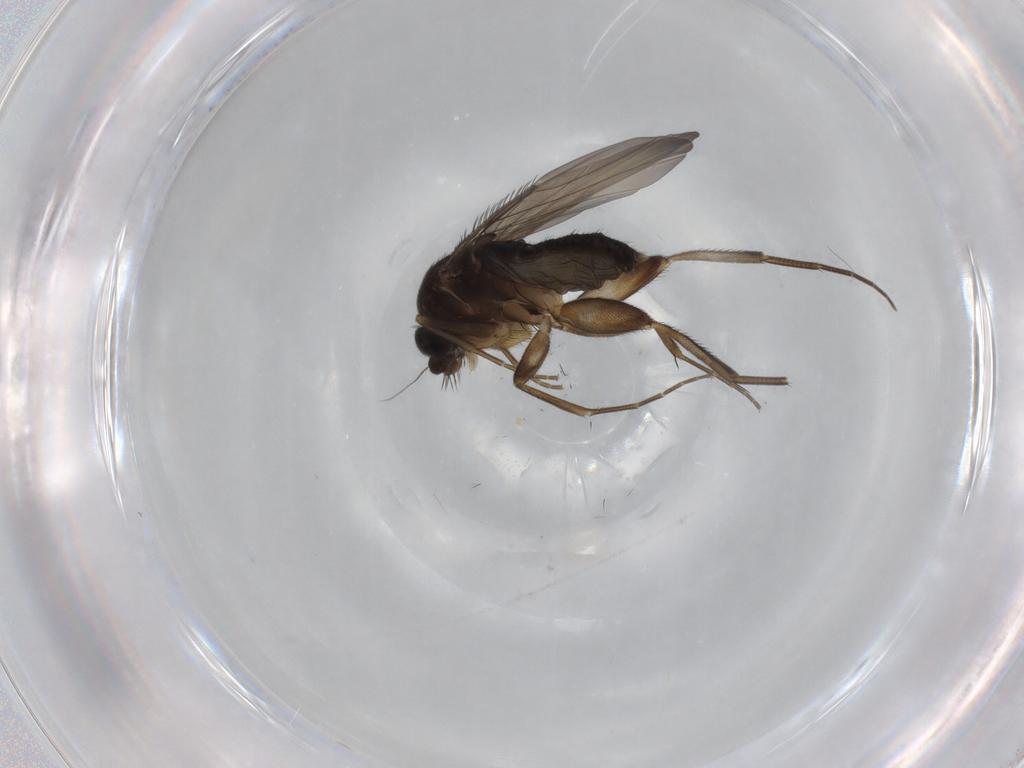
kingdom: Animalia
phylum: Arthropoda
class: Insecta
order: Diptera
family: Phoridae
